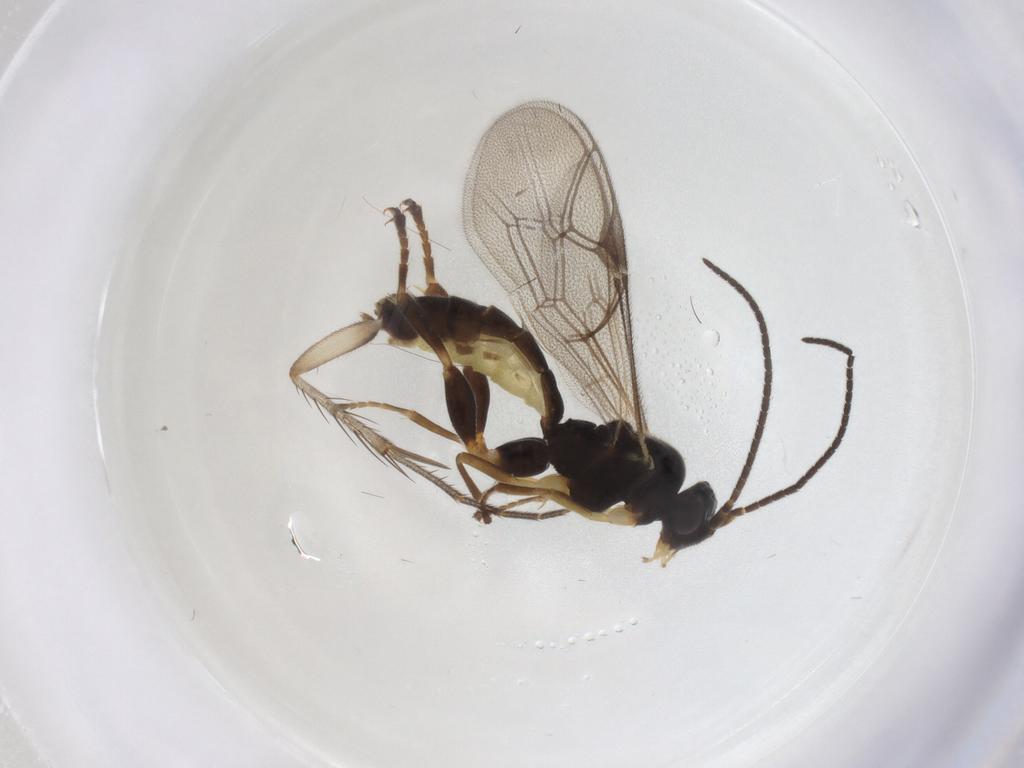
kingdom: Animalia
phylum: Arthropoda
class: Insecta
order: Hymenoptera
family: Ichneumonidae
